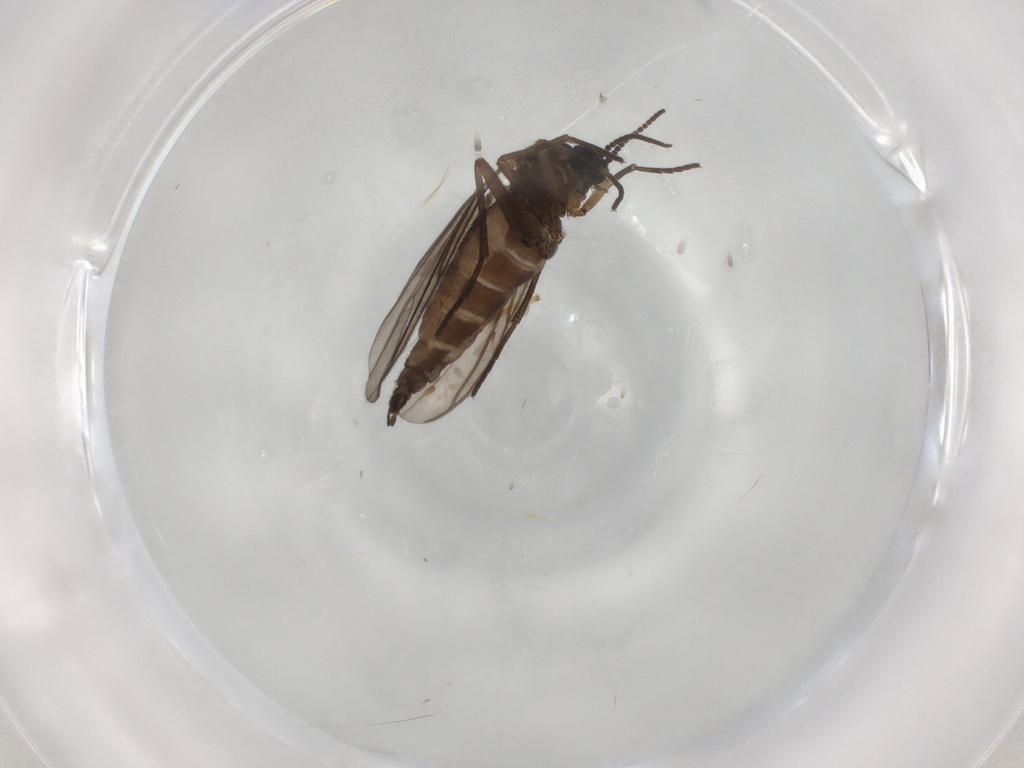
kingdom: Animalia
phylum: Arthropoda
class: Insecta
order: Diptera
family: Sciaridae
